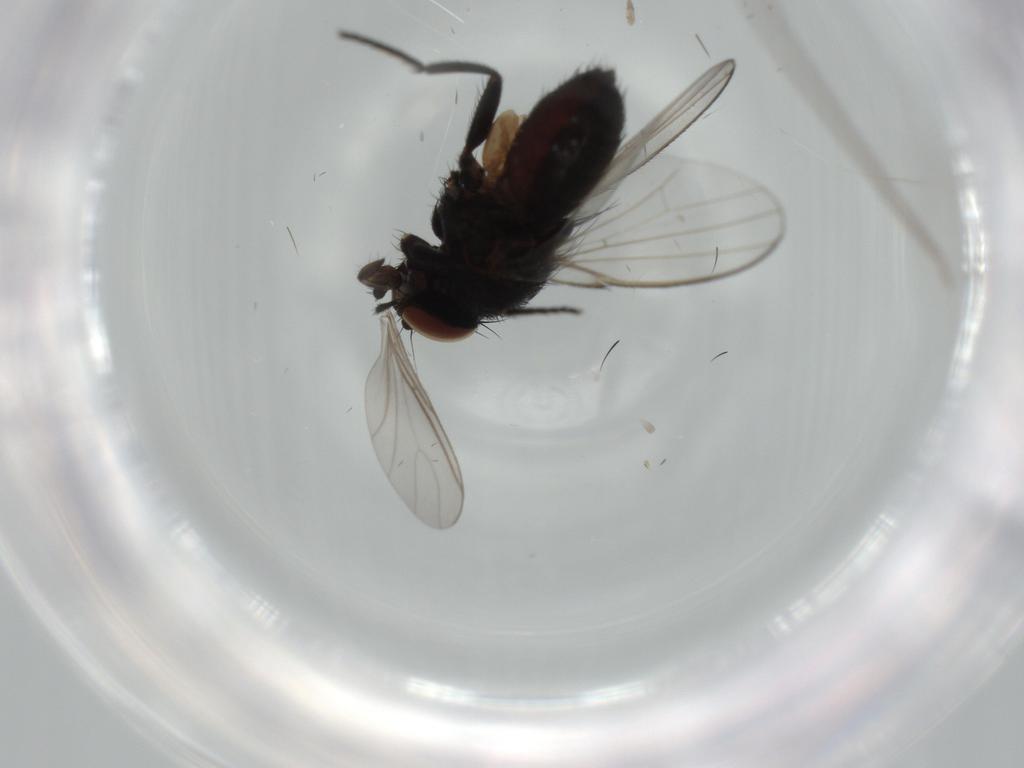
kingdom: Animalia
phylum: Arthropoda
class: Insecta
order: Diptera
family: Milichiidae
